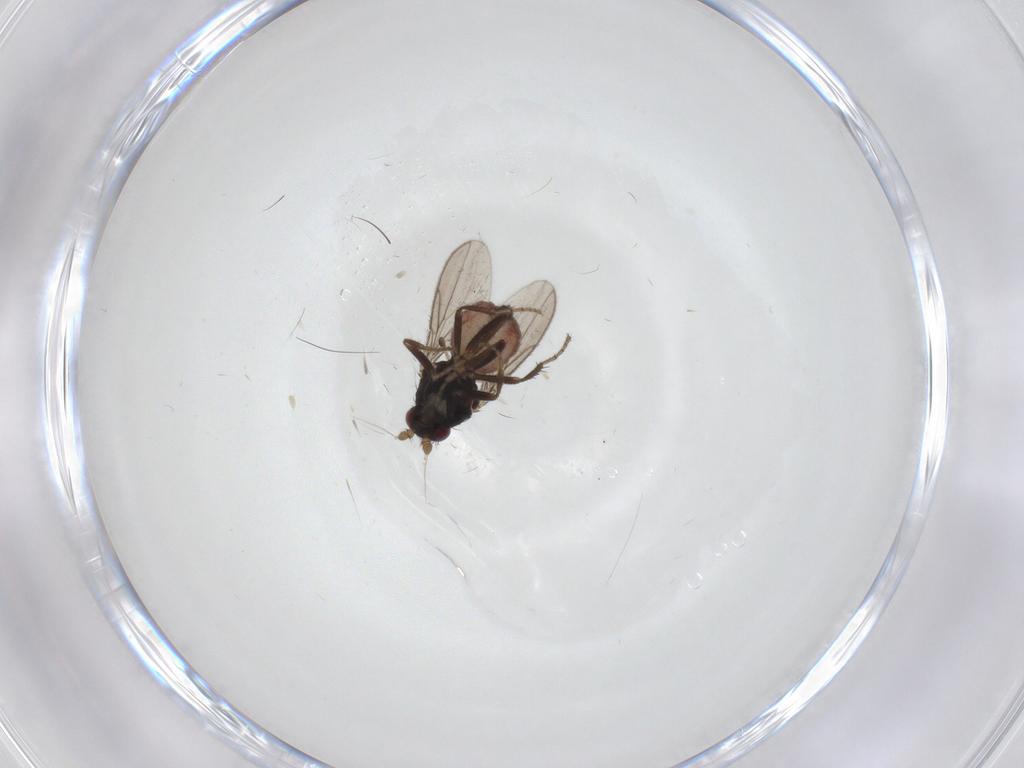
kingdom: Animalia
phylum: Arthropoda
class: Insecta
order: Diptera
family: Sphaeroceridae
